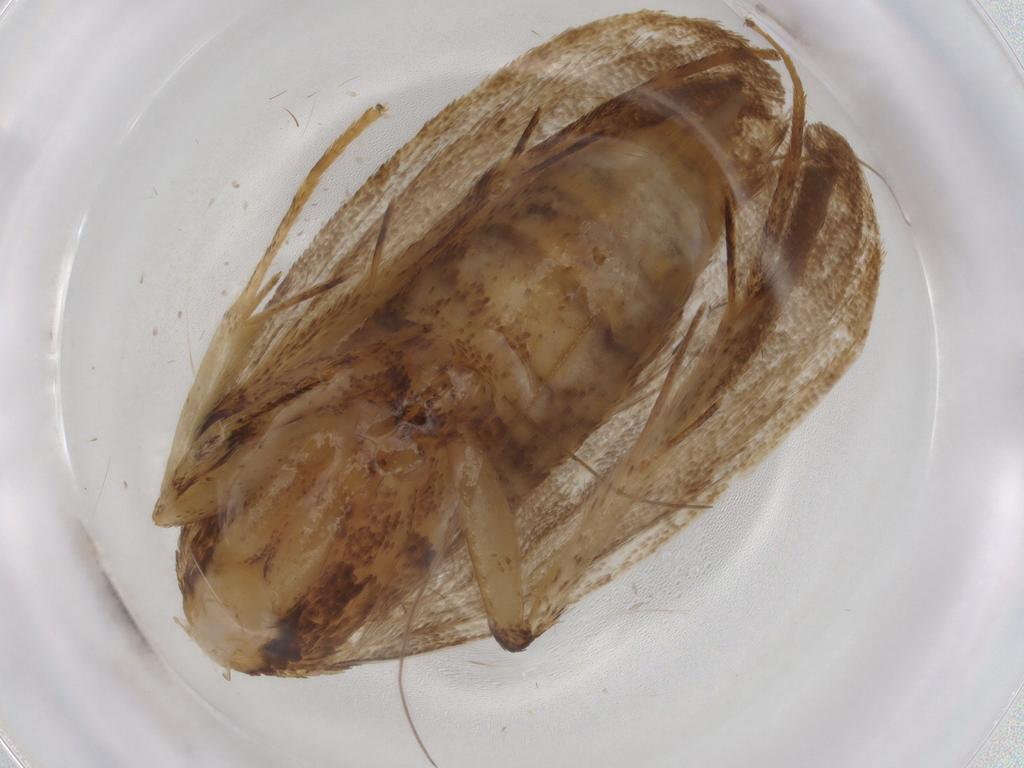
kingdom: Animalia
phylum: Arthropoda
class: Insecta
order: Lepidoptera
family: Lecithoceridae
